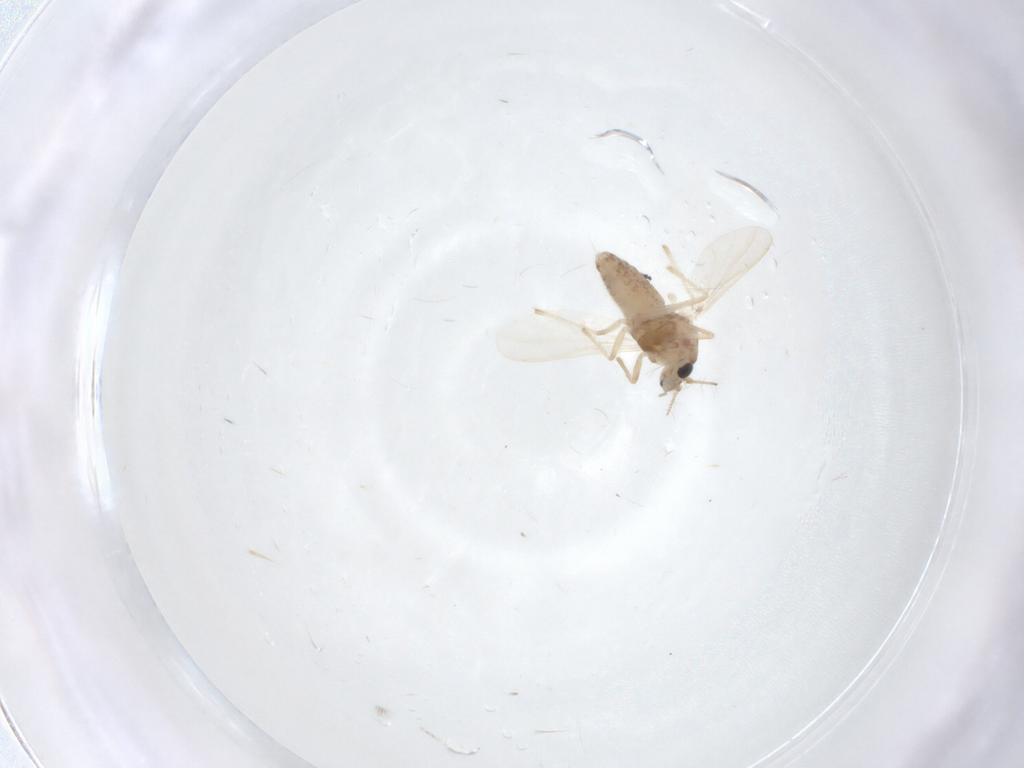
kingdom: Animalia
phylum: Arthropoda
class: Insecta
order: Diptera
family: Chironomidae
